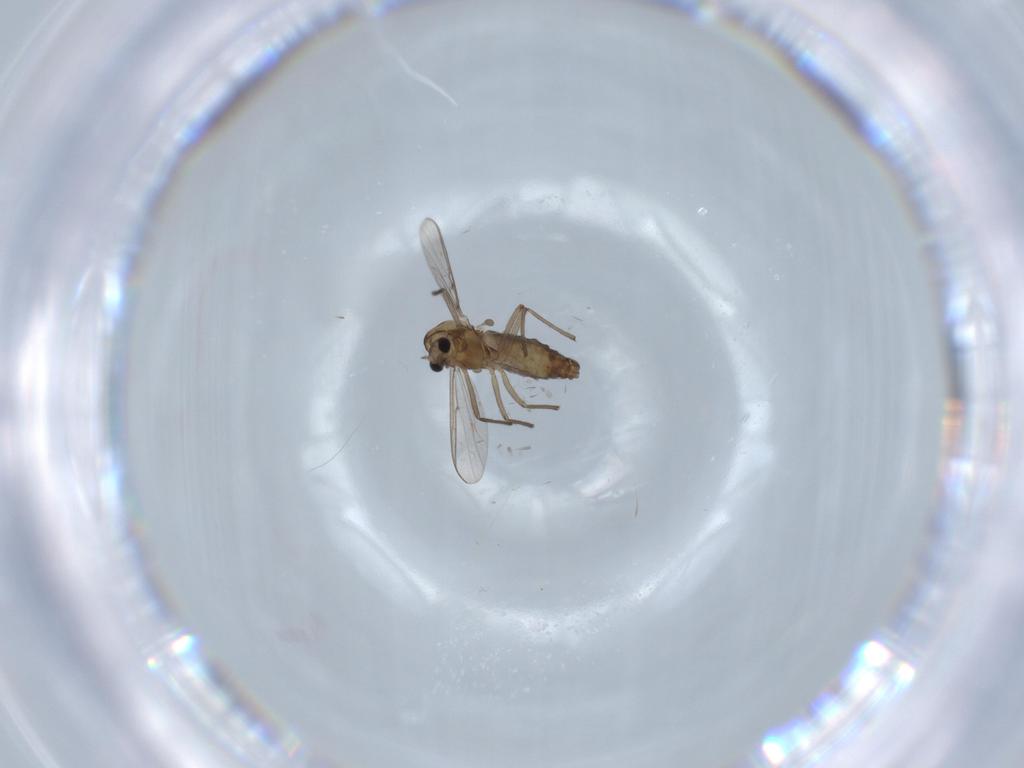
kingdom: Animalia
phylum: Arthropoda
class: Insecta
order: Diptera
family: Chironomidae
